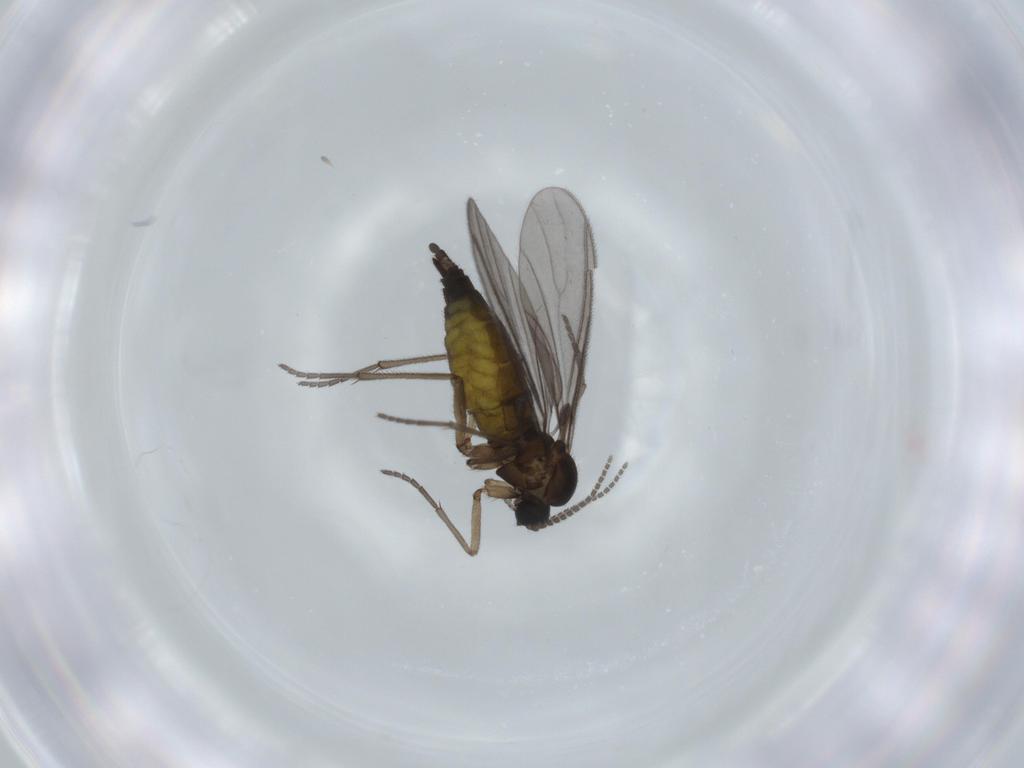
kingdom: Animalia
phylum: Arthropoda
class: Insecta
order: Diptera
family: Sciaridae
